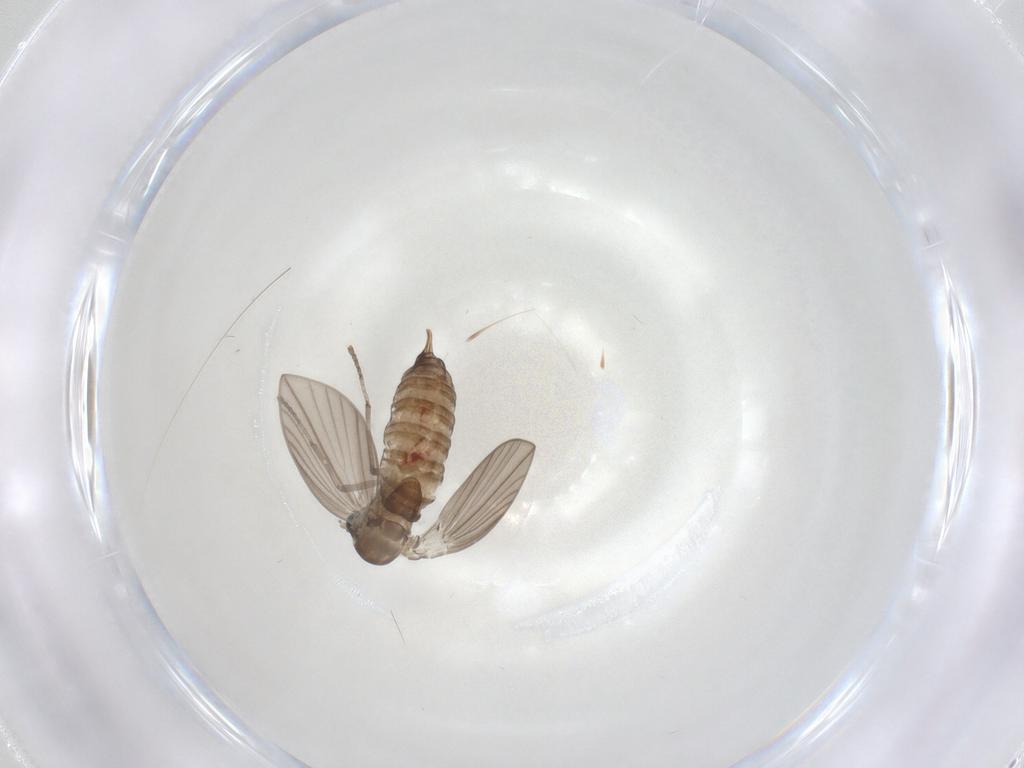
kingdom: Animalia
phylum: Arthropoda
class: Insecta
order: Diptera
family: Psychodidae
